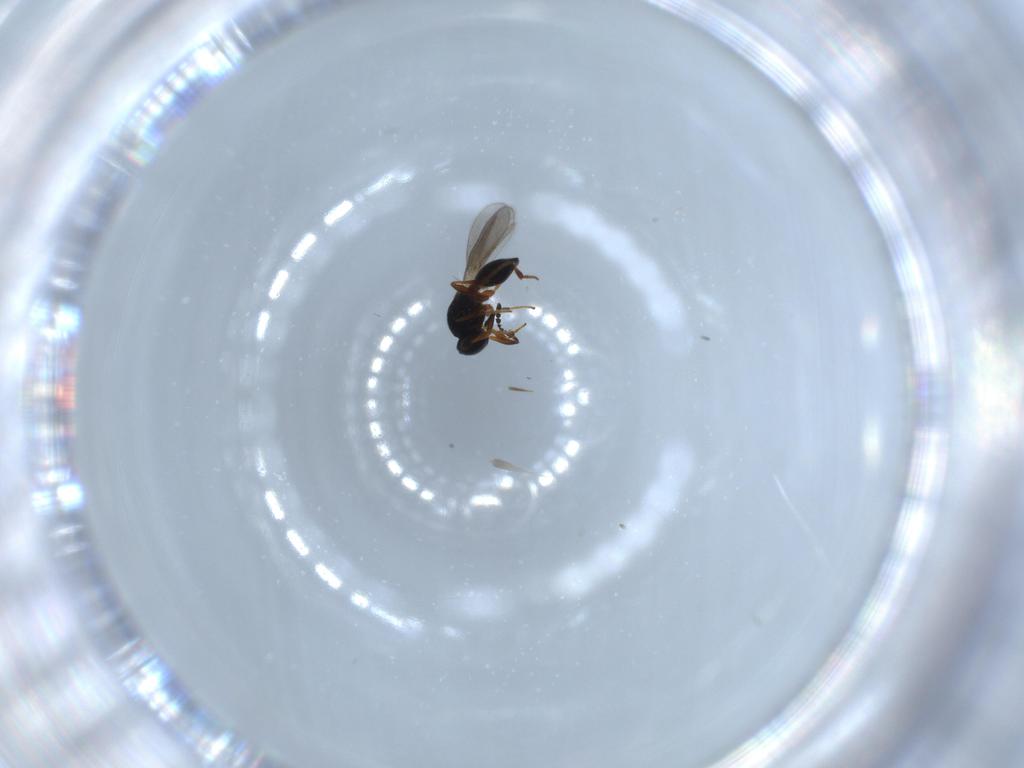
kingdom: Animalia
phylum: Arthropoda
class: Insecta
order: Hymenoptera
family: Platygastridae
